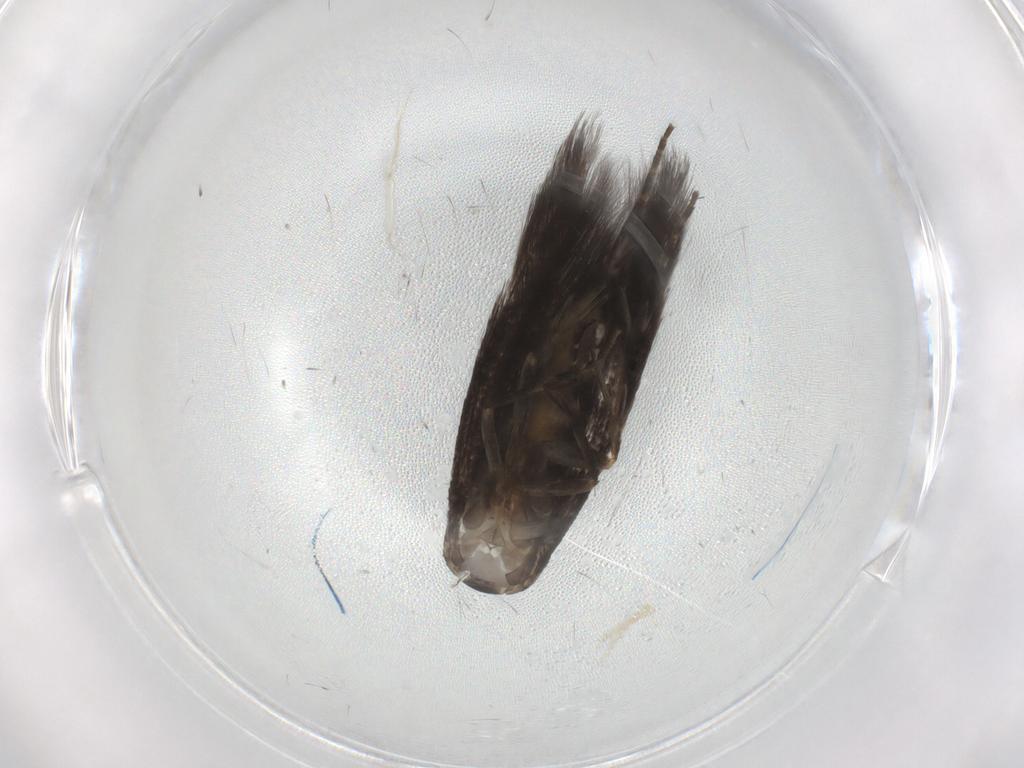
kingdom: Animalia
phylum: Arthropoda
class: Insecta
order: Lepidoptera
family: Elachistidae
